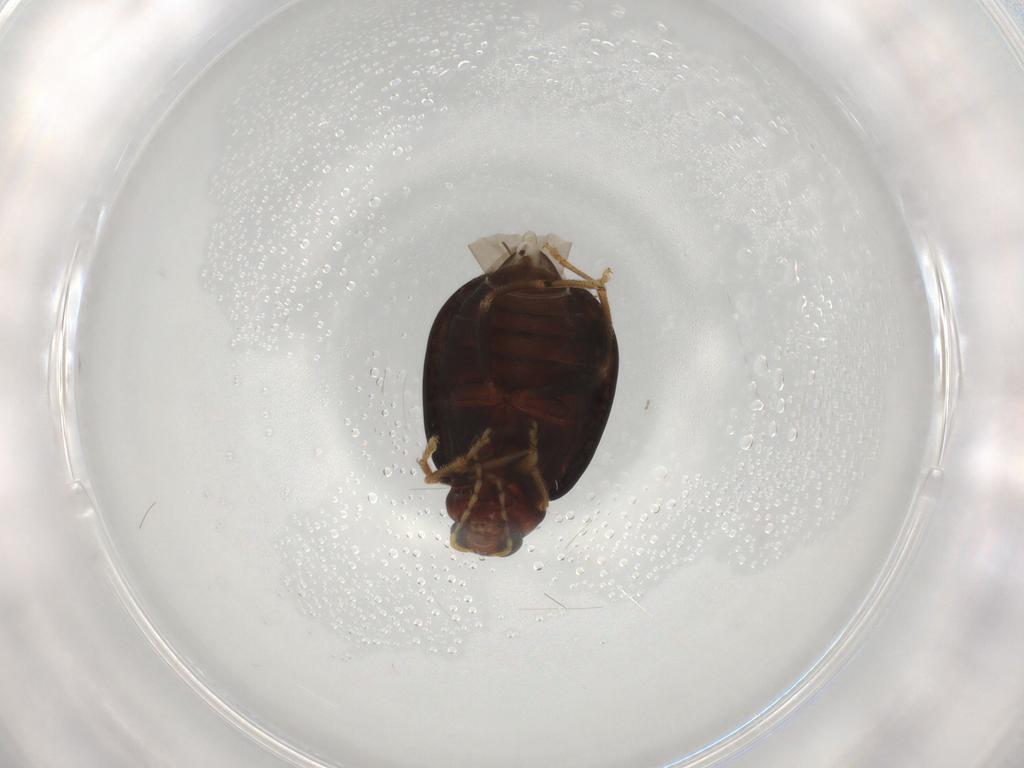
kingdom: Animalia
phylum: Arthropoda
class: Insecta
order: Coleoptera
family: Chrysomelidae
